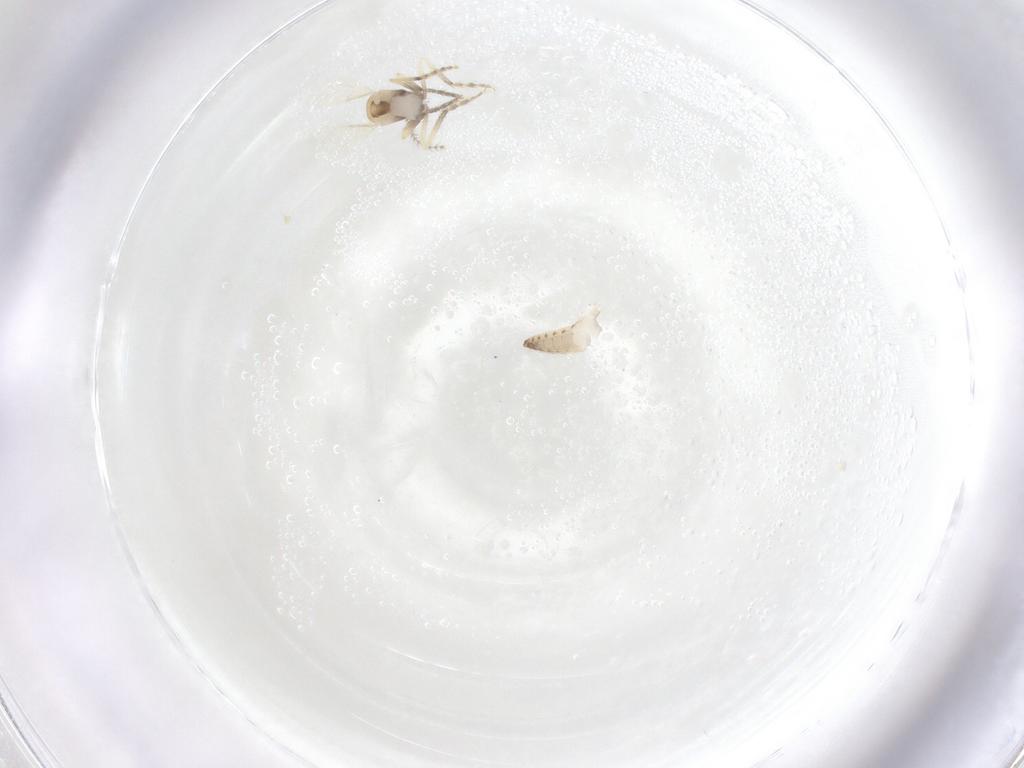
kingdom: Animalia
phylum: Arthropoda
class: Insecta
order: Diptera
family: Ceratopogonidae
